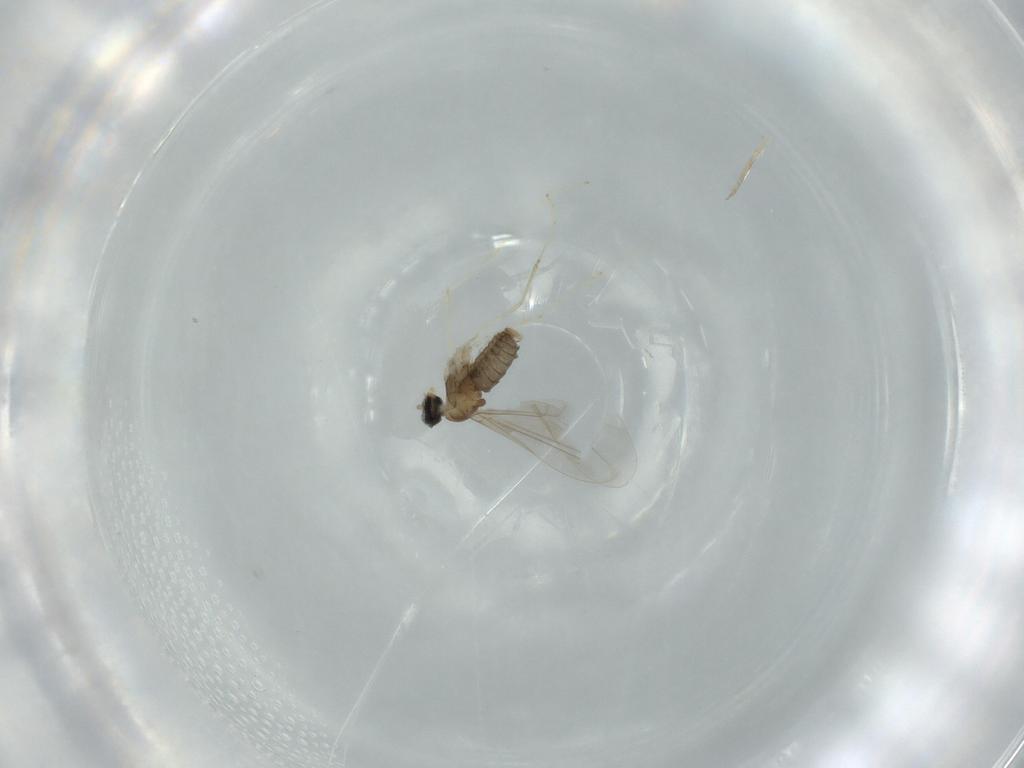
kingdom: Animalia
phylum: Arthropoda
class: Insecta
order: Diptera
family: Cecidomyiidae
